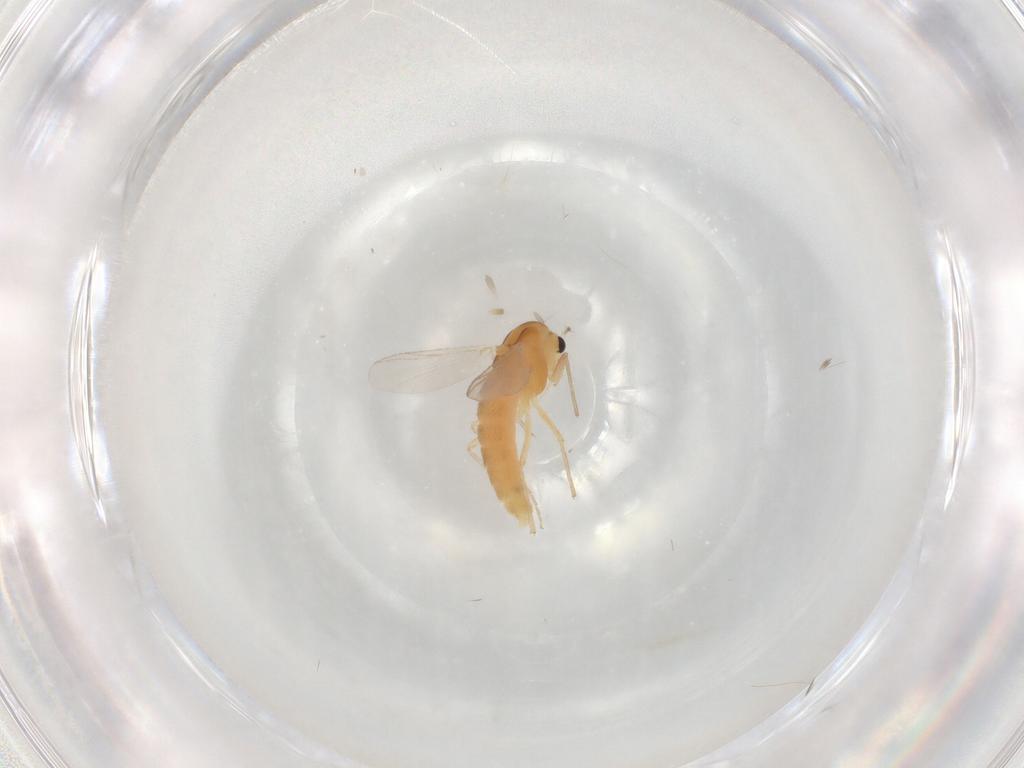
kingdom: Animalia
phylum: Arthropoda
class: Insecta
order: Diptera
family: Chironomidae
